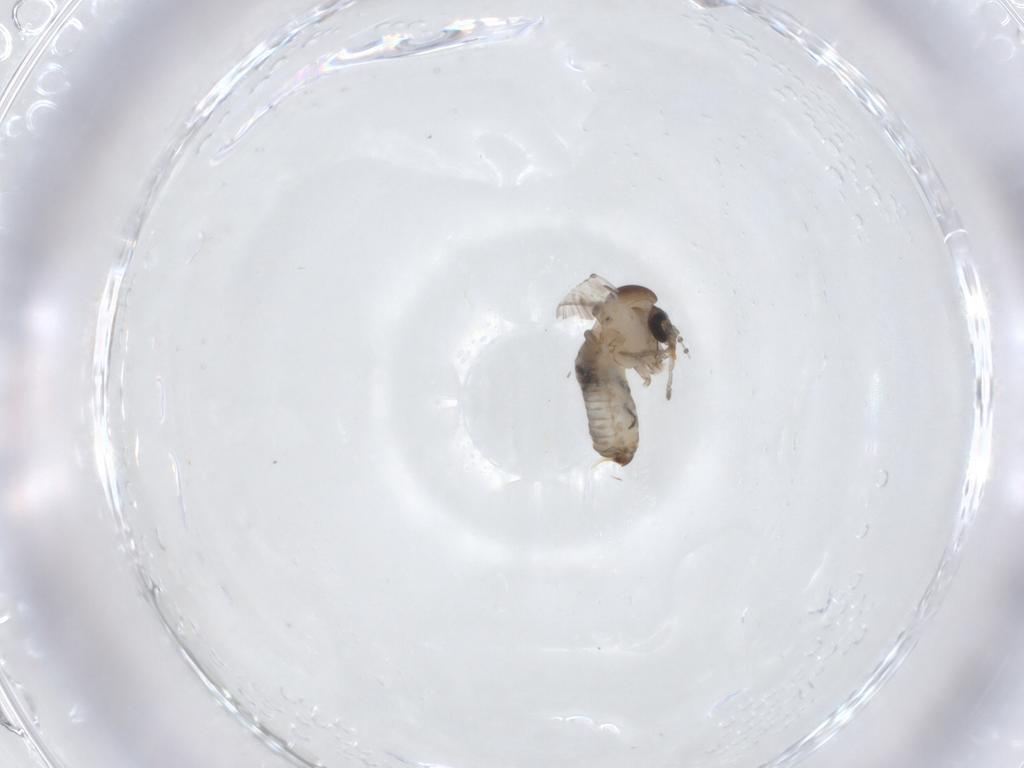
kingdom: Animalia
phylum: Arthropoda
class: Insecta
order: Diptera
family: Psychodidae
